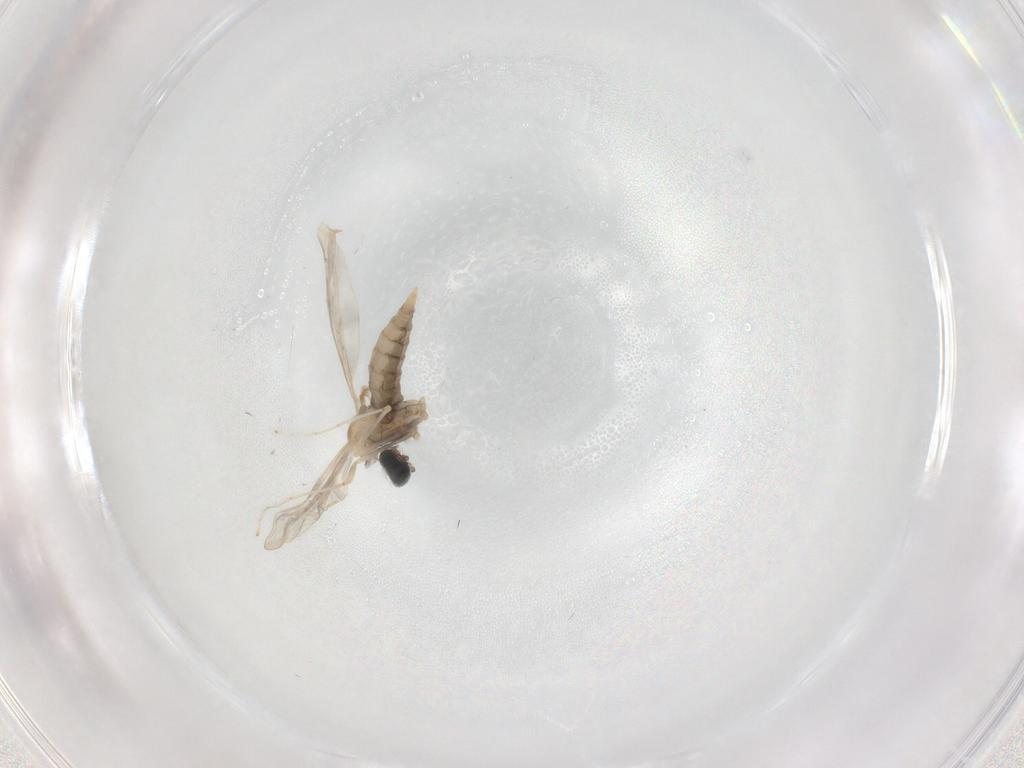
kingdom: Animalia
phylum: Arthropoda
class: Insecta
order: Diptera
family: Cecidomyiidae
